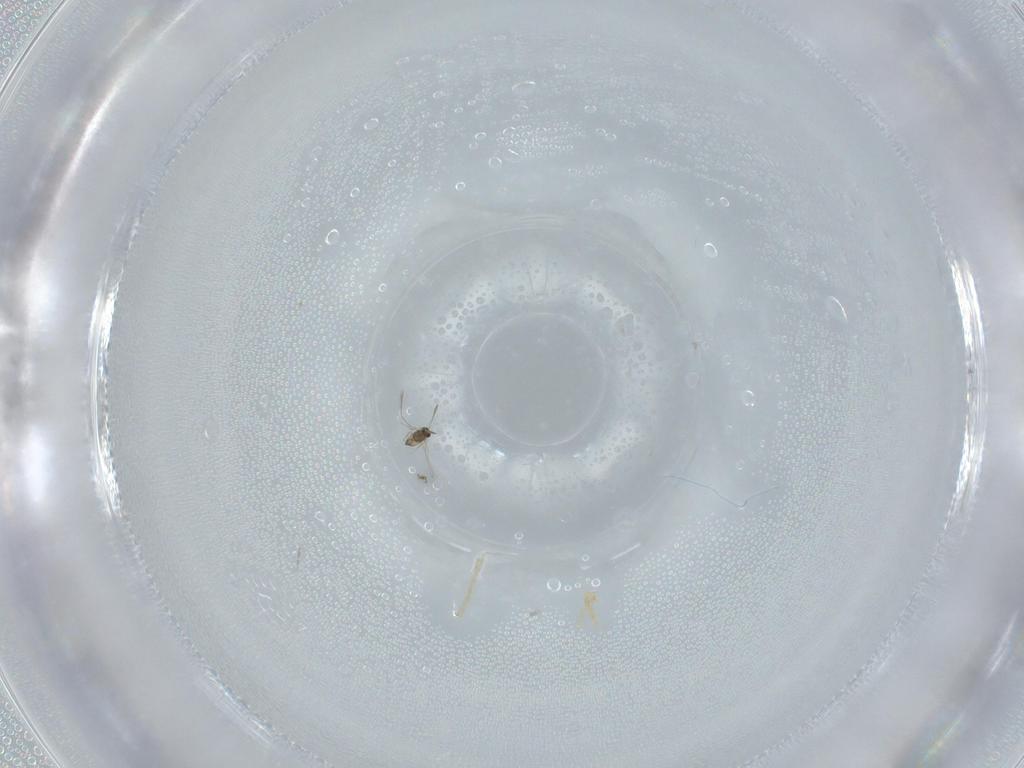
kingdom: Animalia
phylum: Arthropoda
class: Insecta
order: Hymenoptera
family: Mymaridae
